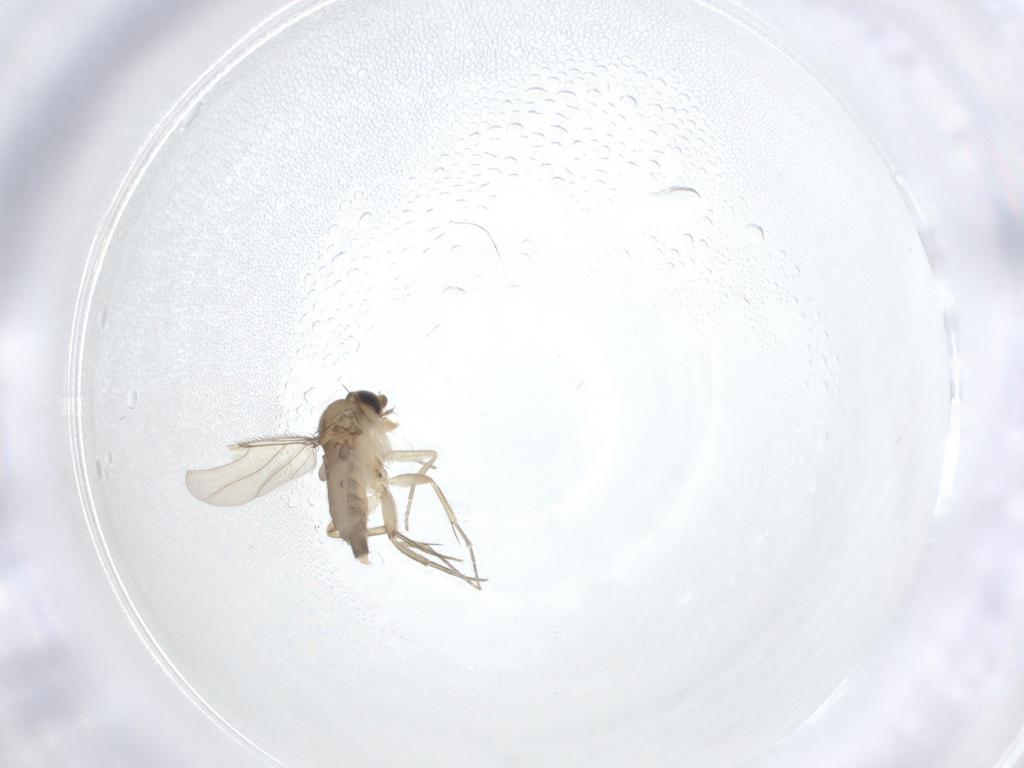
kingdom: Animalia
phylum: Arthropoda
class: Insecta
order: Diptera
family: Phoridae
